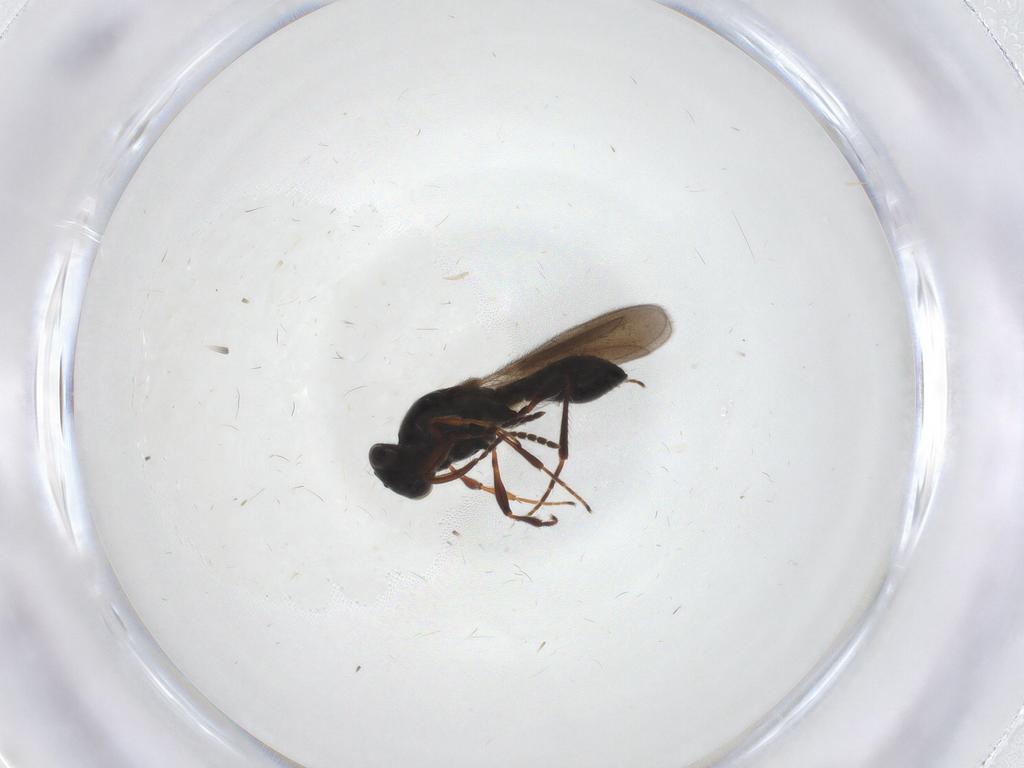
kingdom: Animalia
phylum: Arthropoda
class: Insecta
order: Hymenoptera
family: Platygastridae
